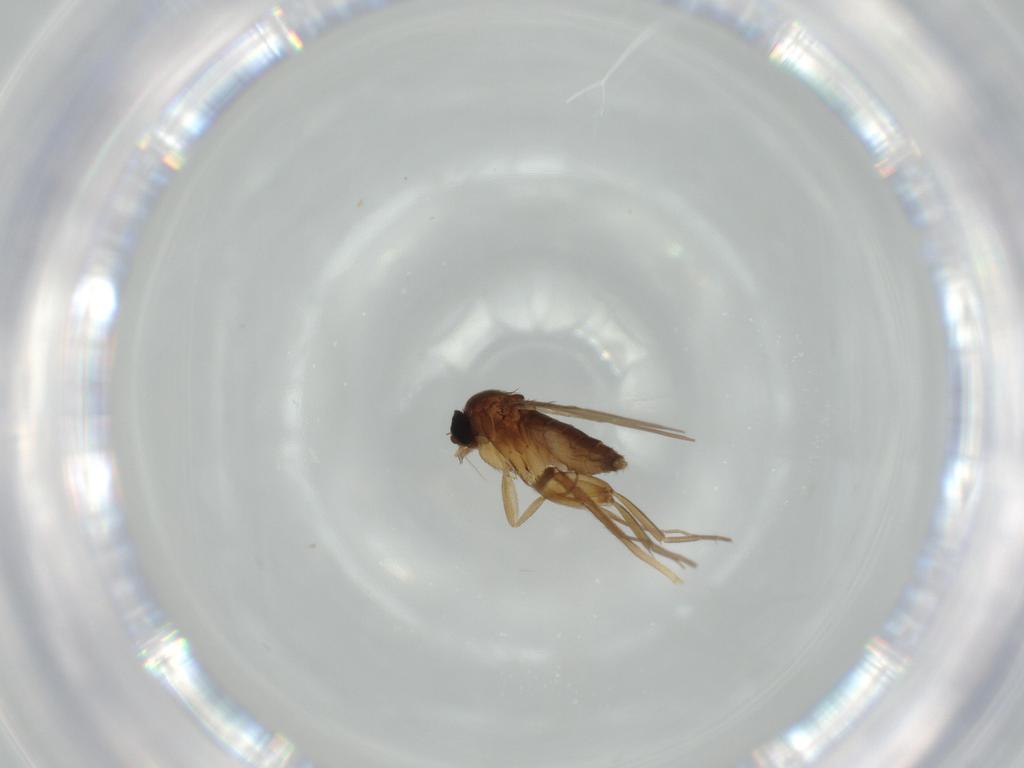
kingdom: Animalia
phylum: Arthropoda
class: Insecta
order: Diptera
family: Phoridae
